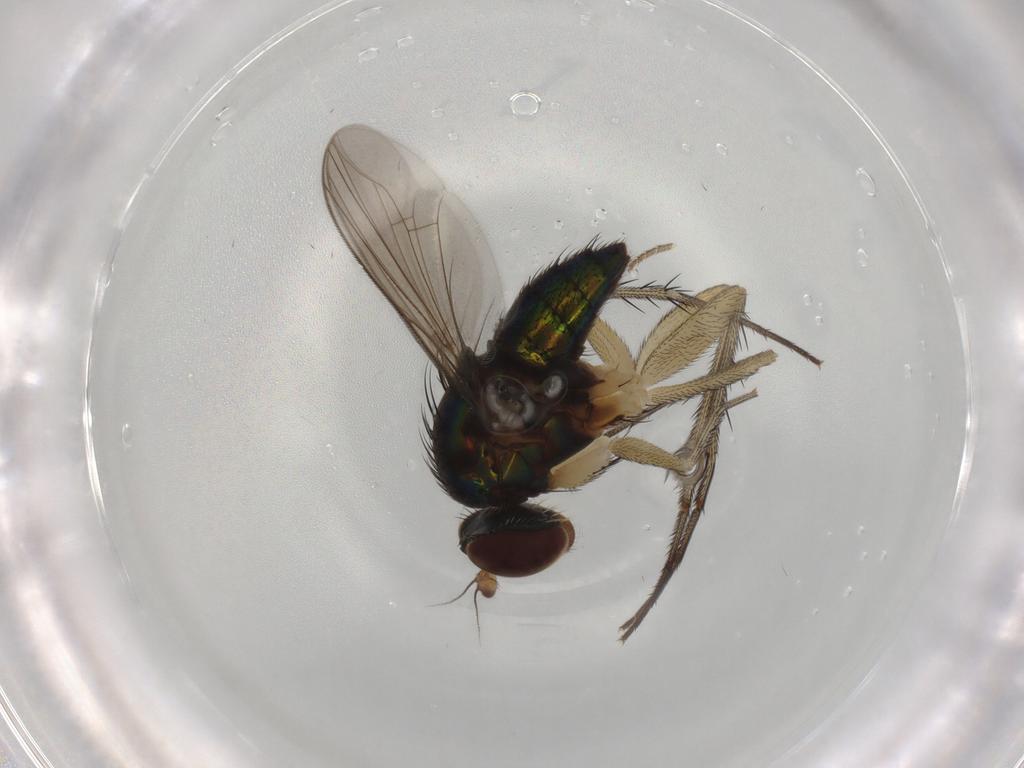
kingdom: Animalia
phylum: Arthropoda
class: Insecta
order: Diptera
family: Dolichopodidae
